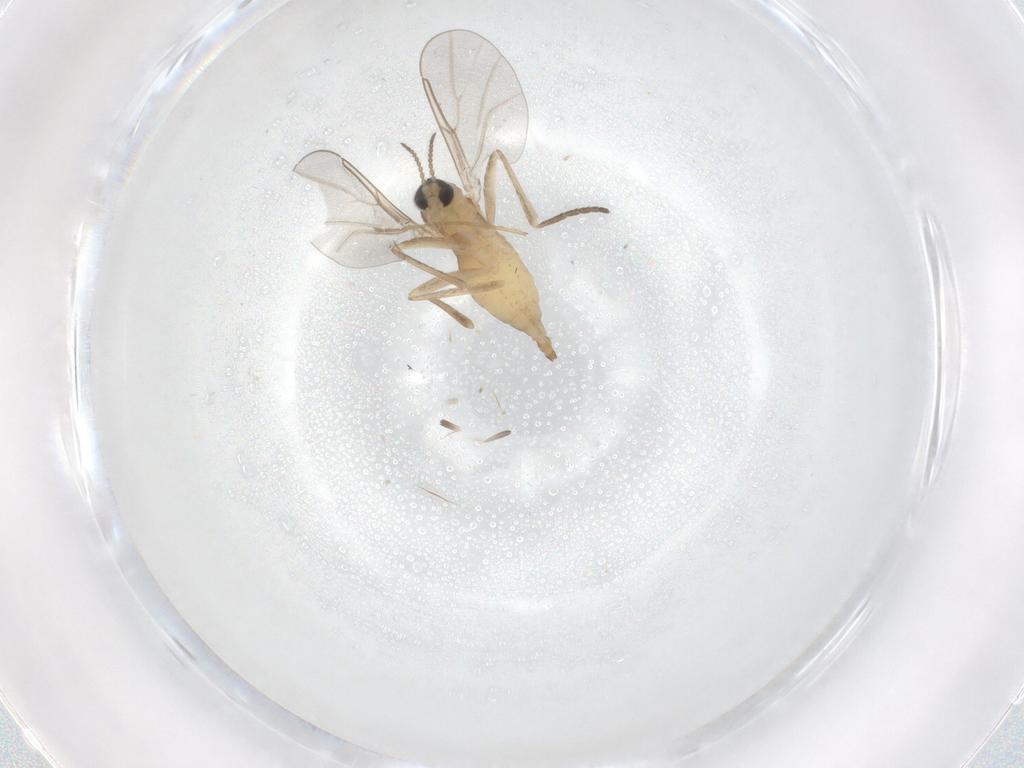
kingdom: Animalia
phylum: Arthropoda
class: Insecta
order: Diptera
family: Chironomidae
